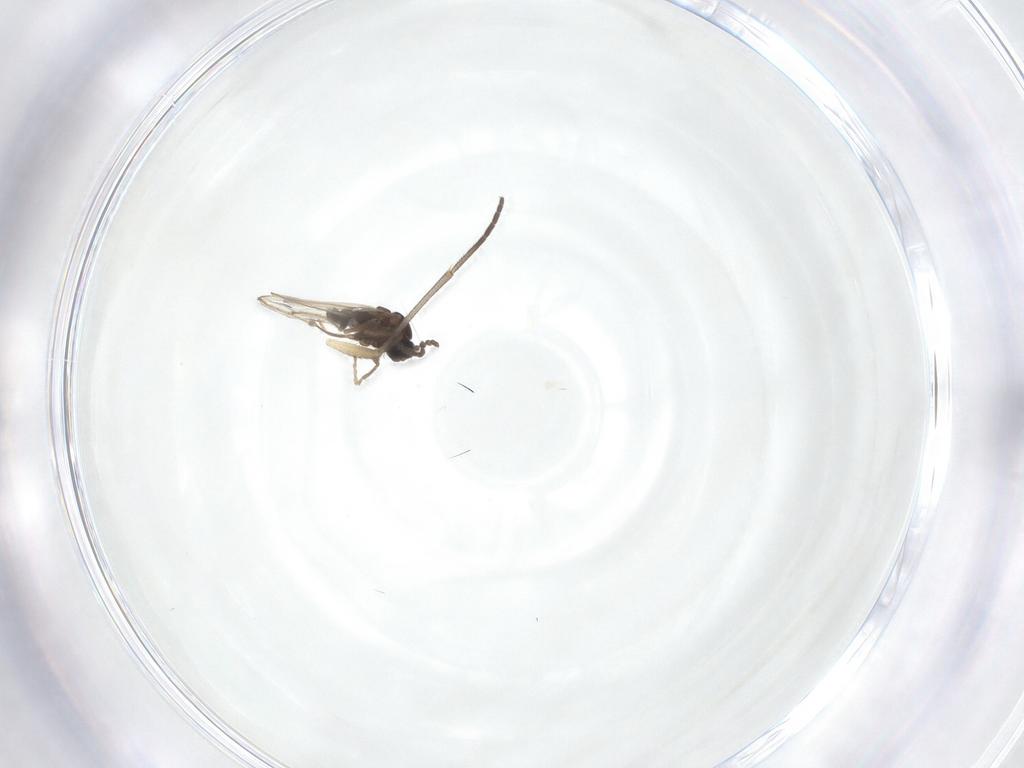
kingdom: Animalia
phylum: Arthropoda
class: Insecta
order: Diptera
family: Cecidomyiidae
